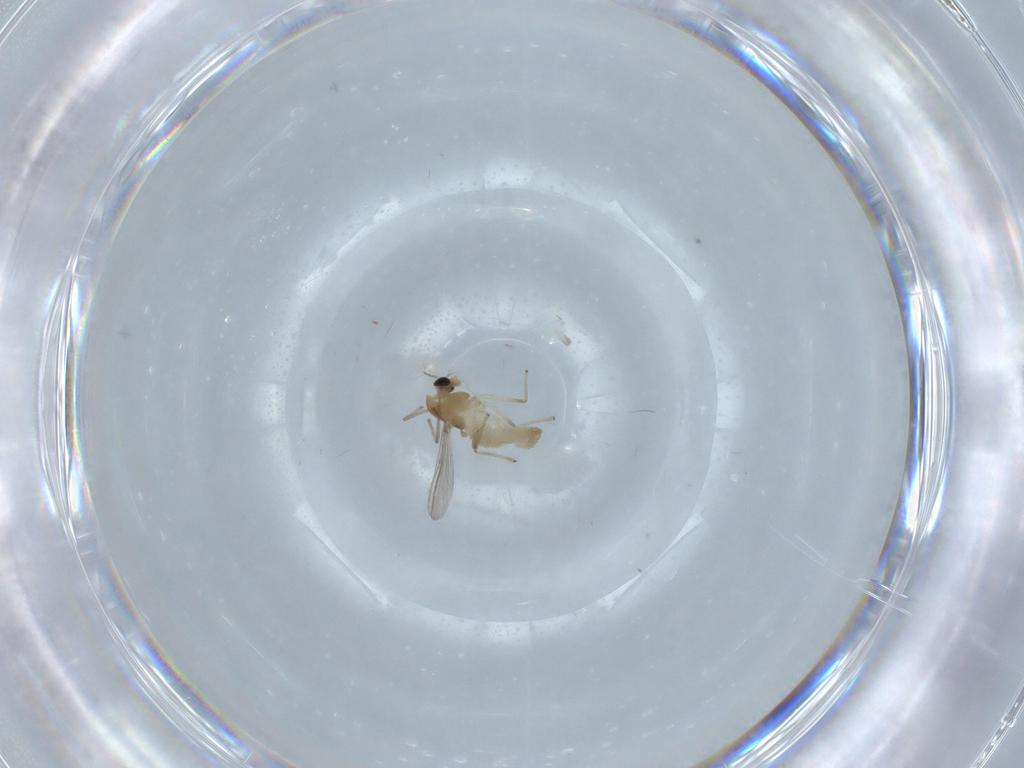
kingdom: Animalia
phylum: Arthropoda
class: Insecta
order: Diptera
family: Chironomidae
